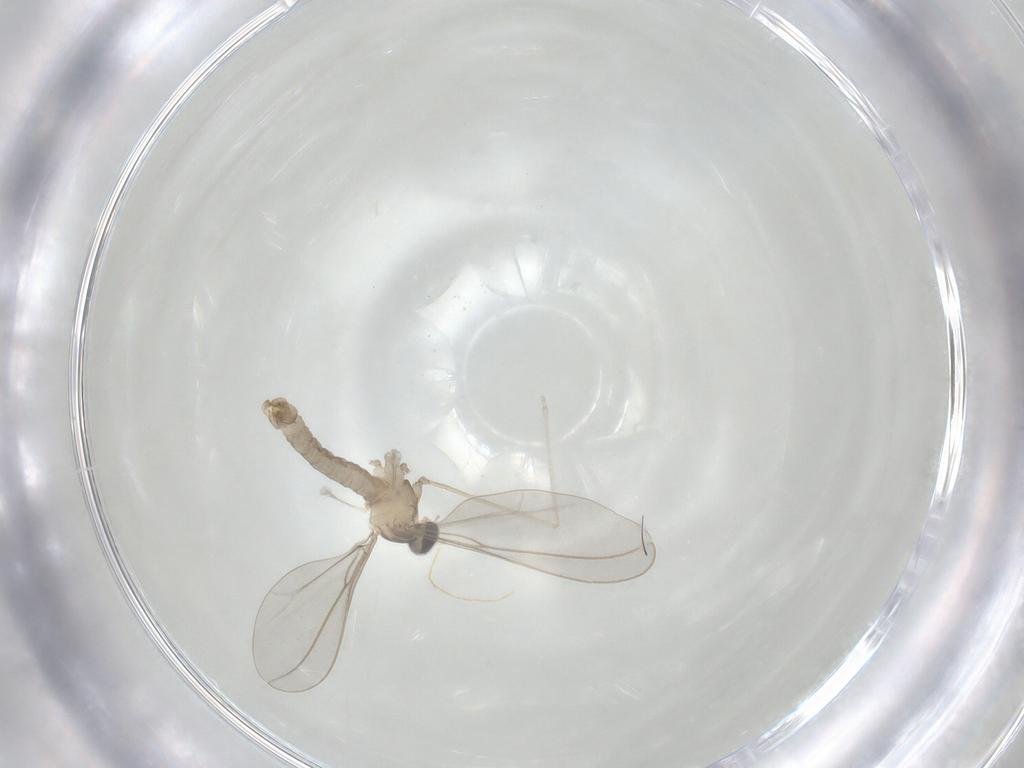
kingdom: Animalia
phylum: Arthropoda
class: Insecta
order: Diptera
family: Cecidomyiidae
